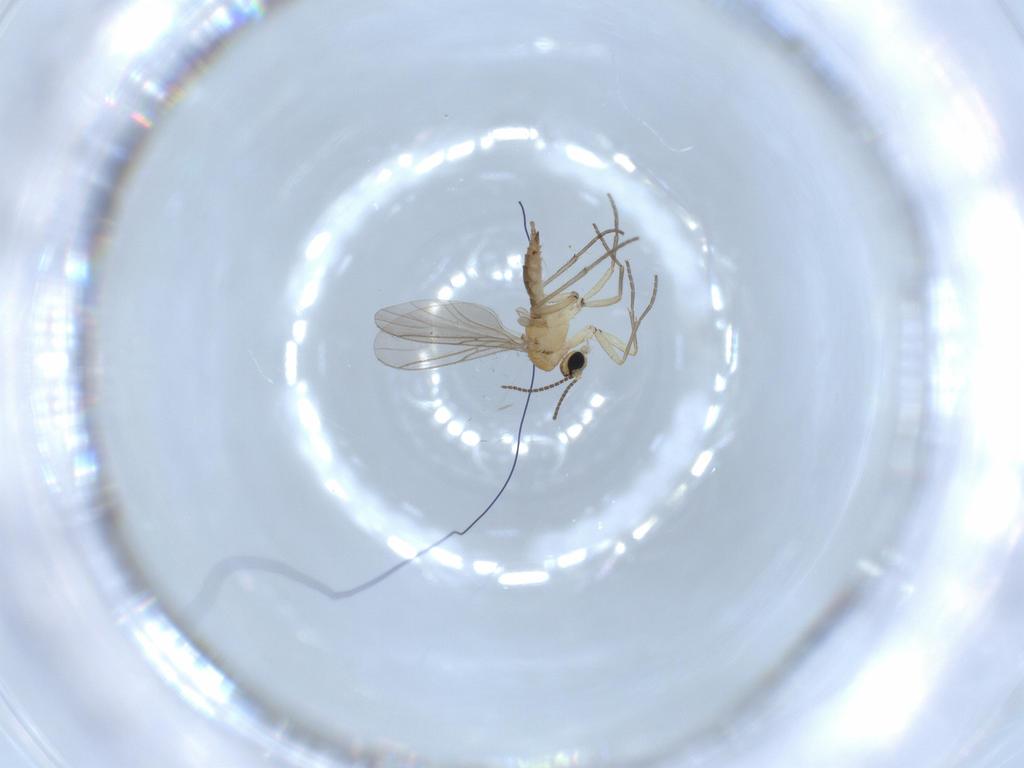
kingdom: Animalia
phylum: Arthropoda
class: Insecta
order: Diptera
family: Sciaridae
